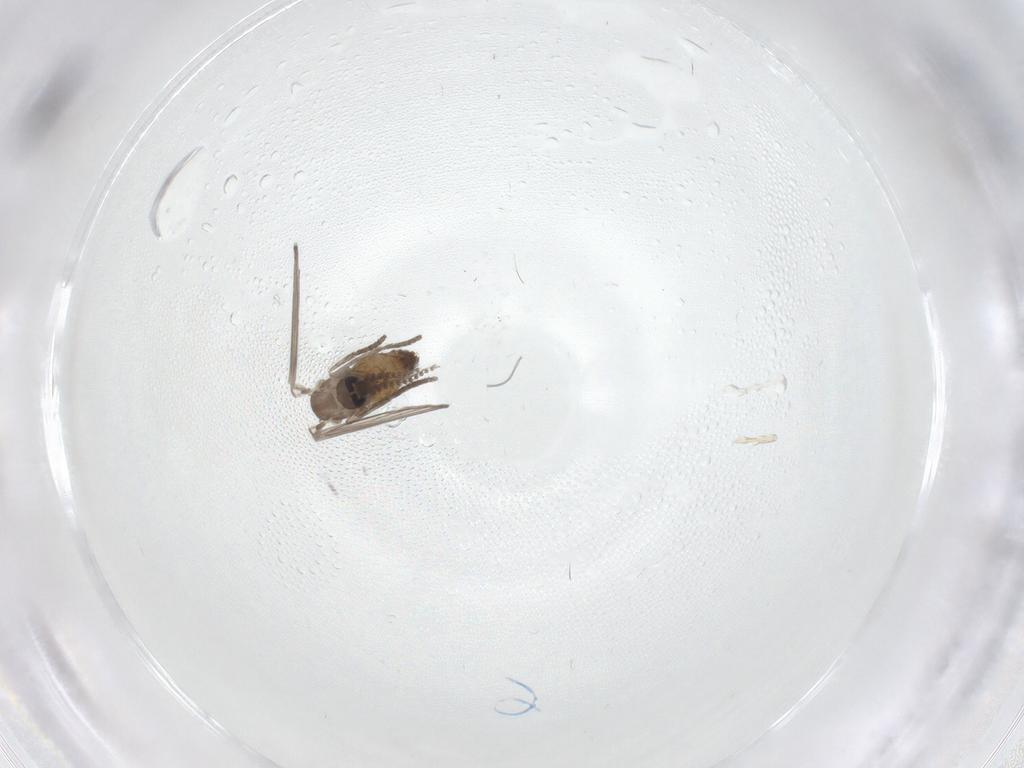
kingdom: Animalia
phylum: Arthropoda
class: Insecta
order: Diptera
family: Cecidomyiidae
